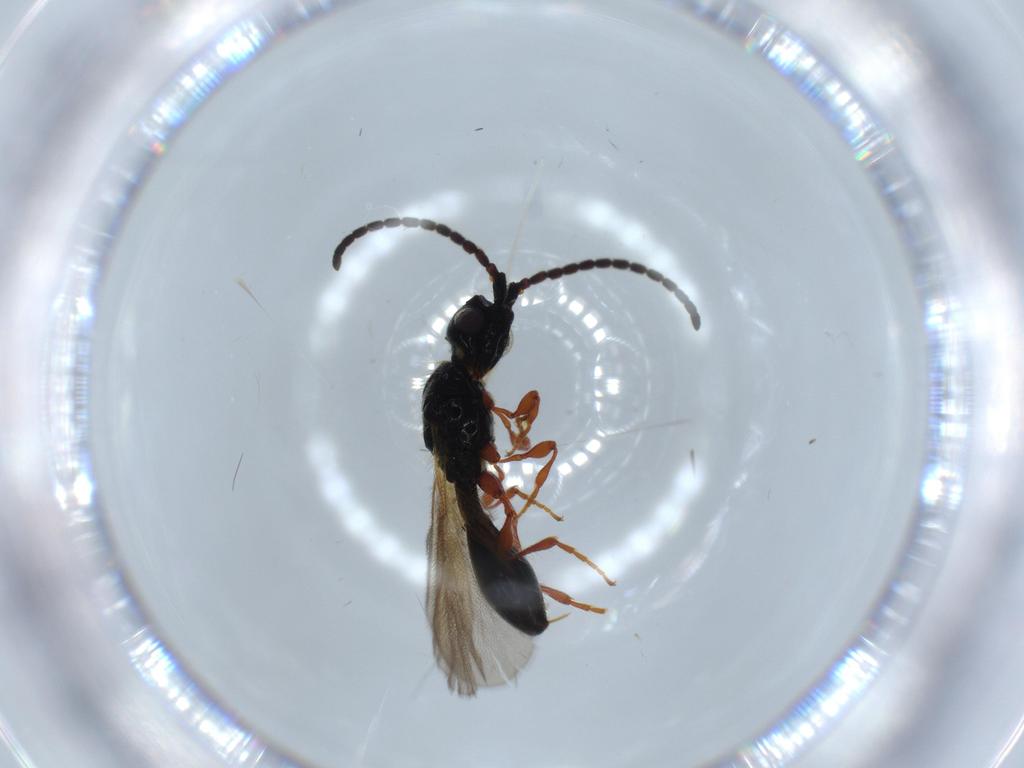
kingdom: Animalia
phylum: Arthropoda
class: Insecta
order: Hymenoptera
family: Diapriidae
